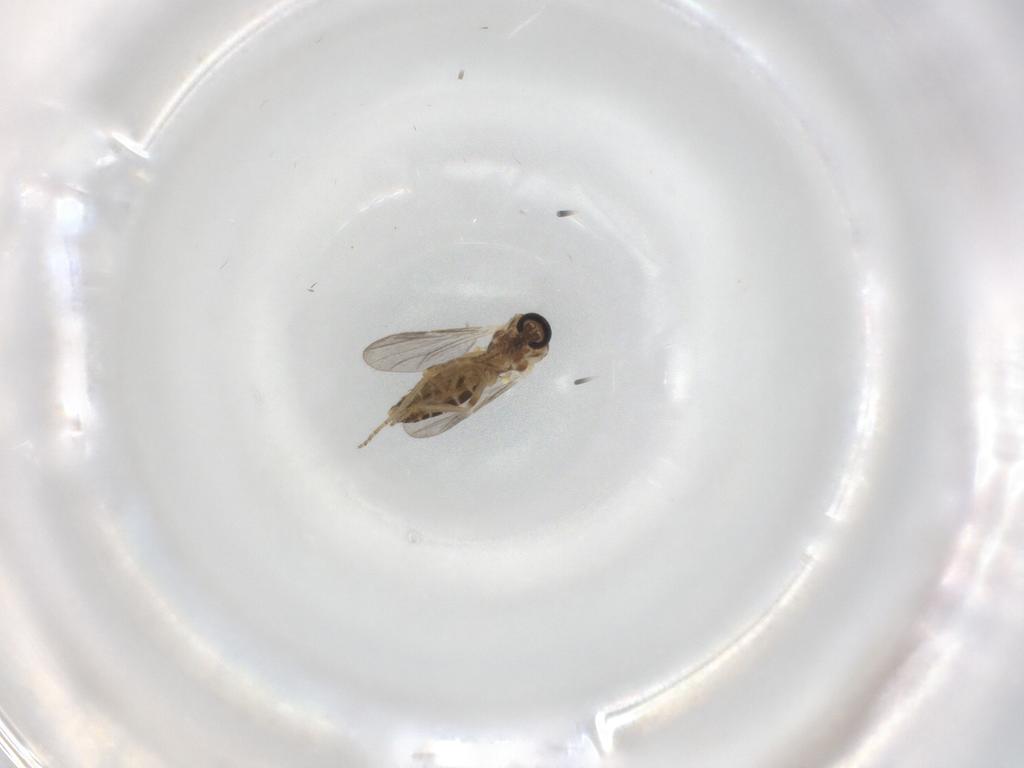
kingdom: Animalia
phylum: Arthropoda
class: Insecta
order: Diptera
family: Ceratopogonidae
